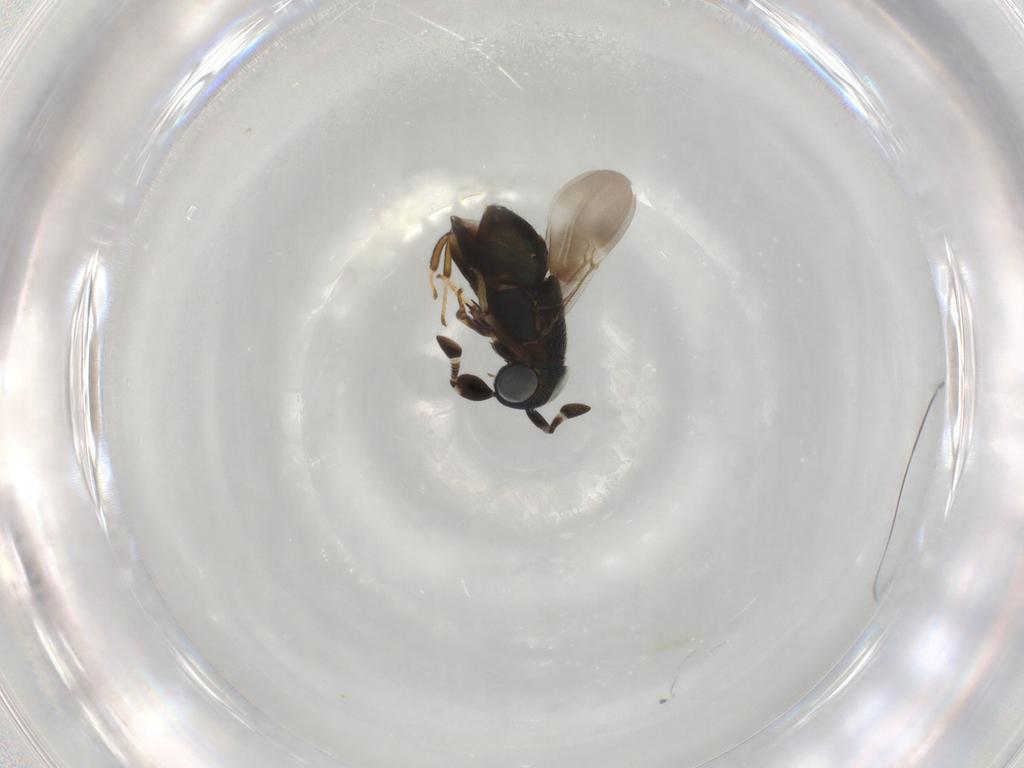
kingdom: Animalia
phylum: Arthropoda
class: Insecta
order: Hymenoptera
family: Encyrtidae
